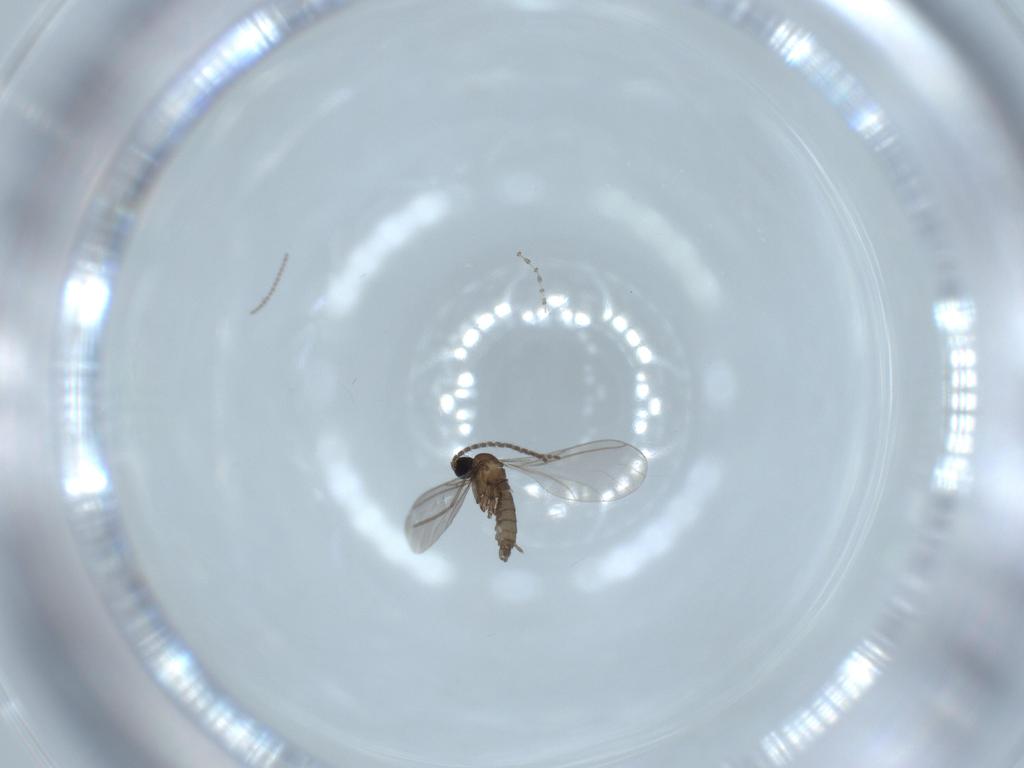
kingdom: Animalia
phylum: Arthropoda
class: Insecta
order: Diptera
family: Sciaridae
